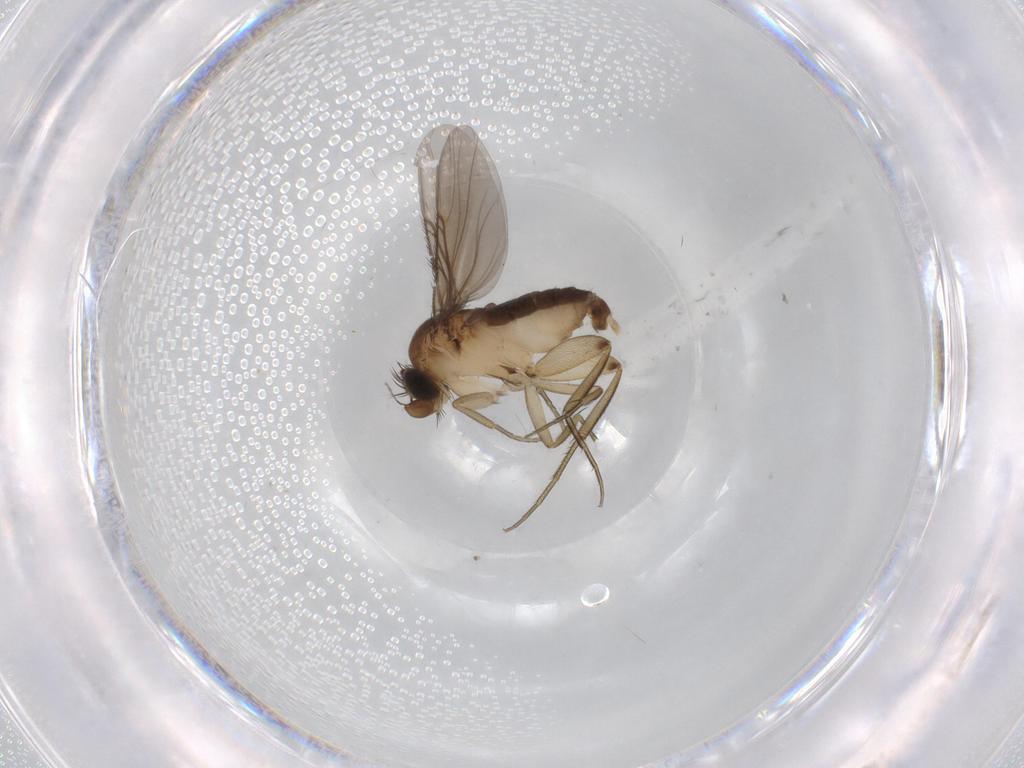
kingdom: Animalia
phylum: Arthropoda
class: Insecta
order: Diptera
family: Phoridae
